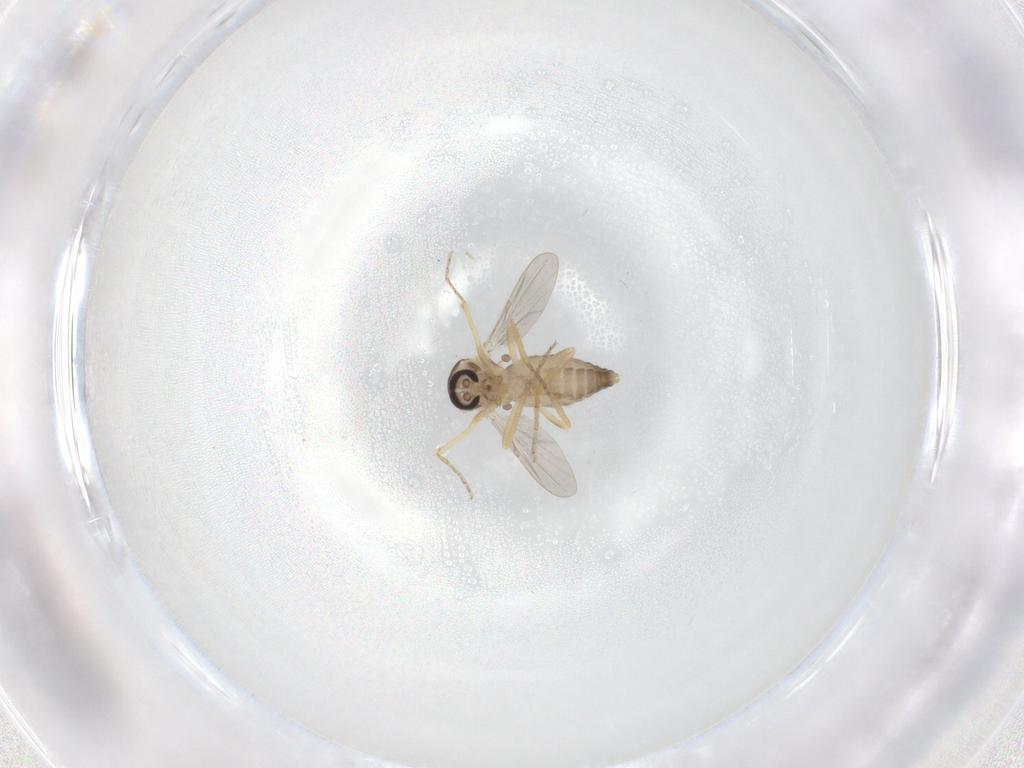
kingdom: Animalia
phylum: Arthropoda
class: Insecta
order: Diptera
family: Ceratopogonidae
